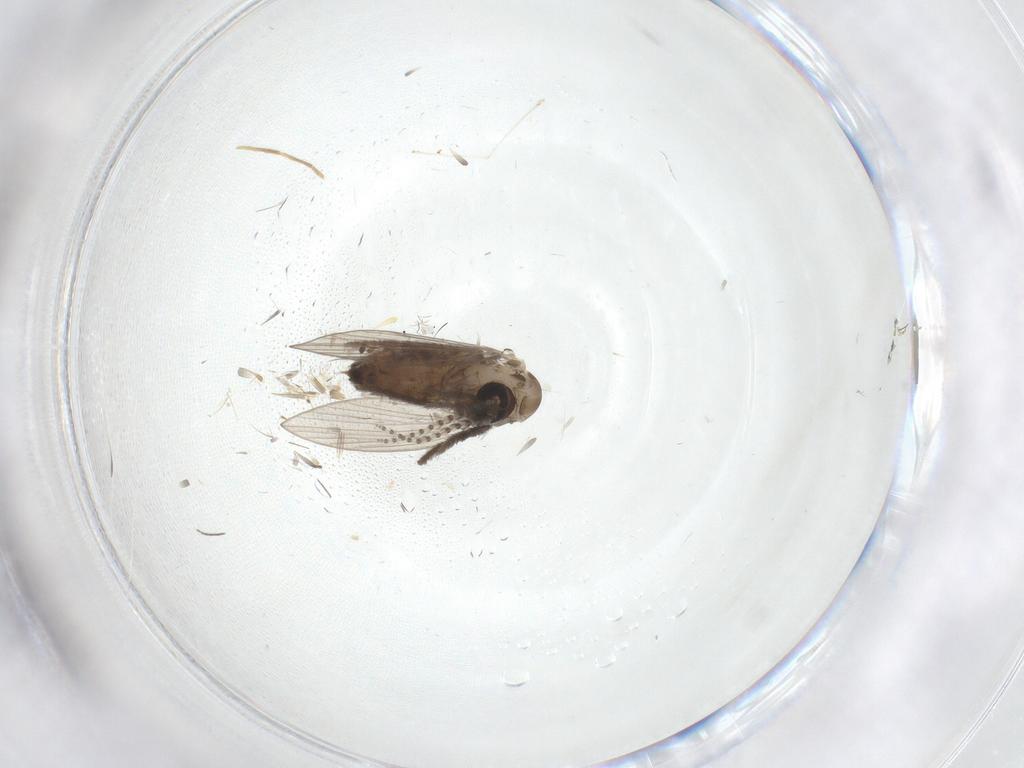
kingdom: Animalia
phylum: Arthropoda
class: Insecta
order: Diptera
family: Psychodidae
